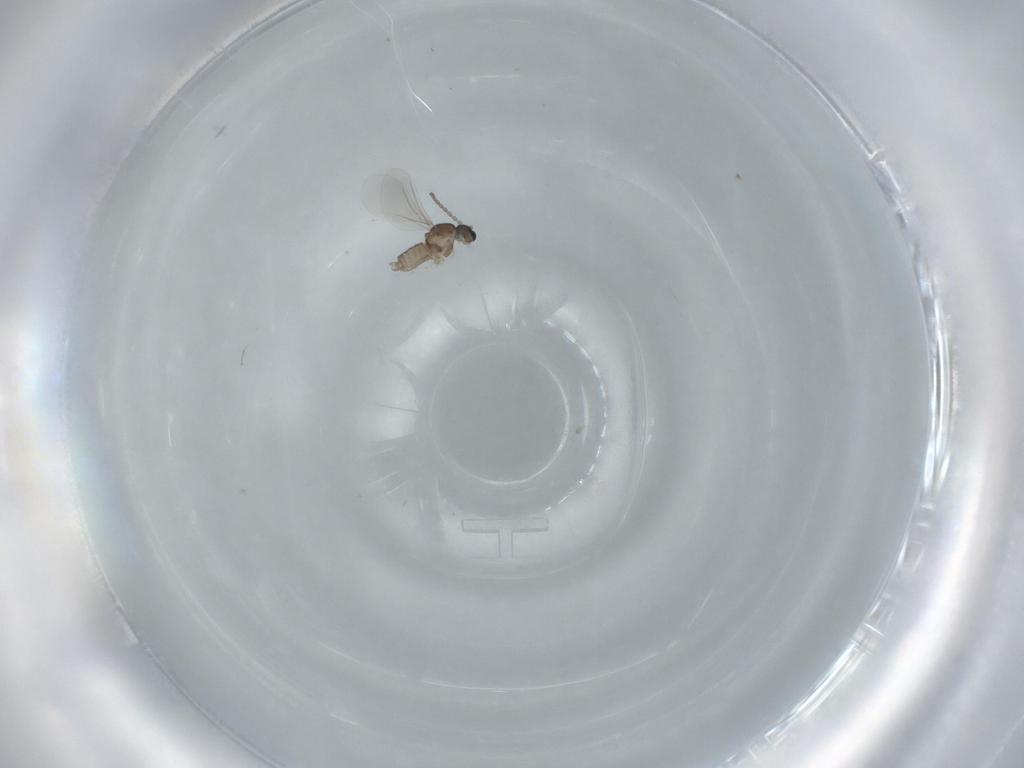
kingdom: Animalia
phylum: Arthropoda
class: Insecta
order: Diptera
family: Cecidomyiidae
